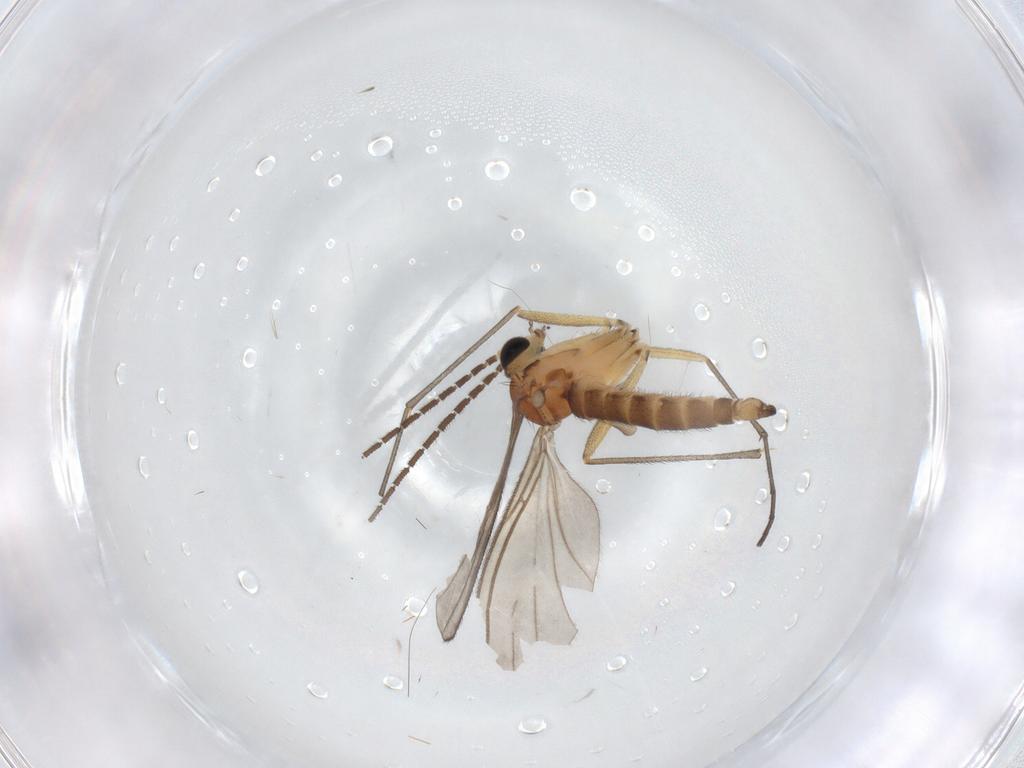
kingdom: Animalia
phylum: Arthropoda
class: Insecta
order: Diptera
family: Sciaridae
